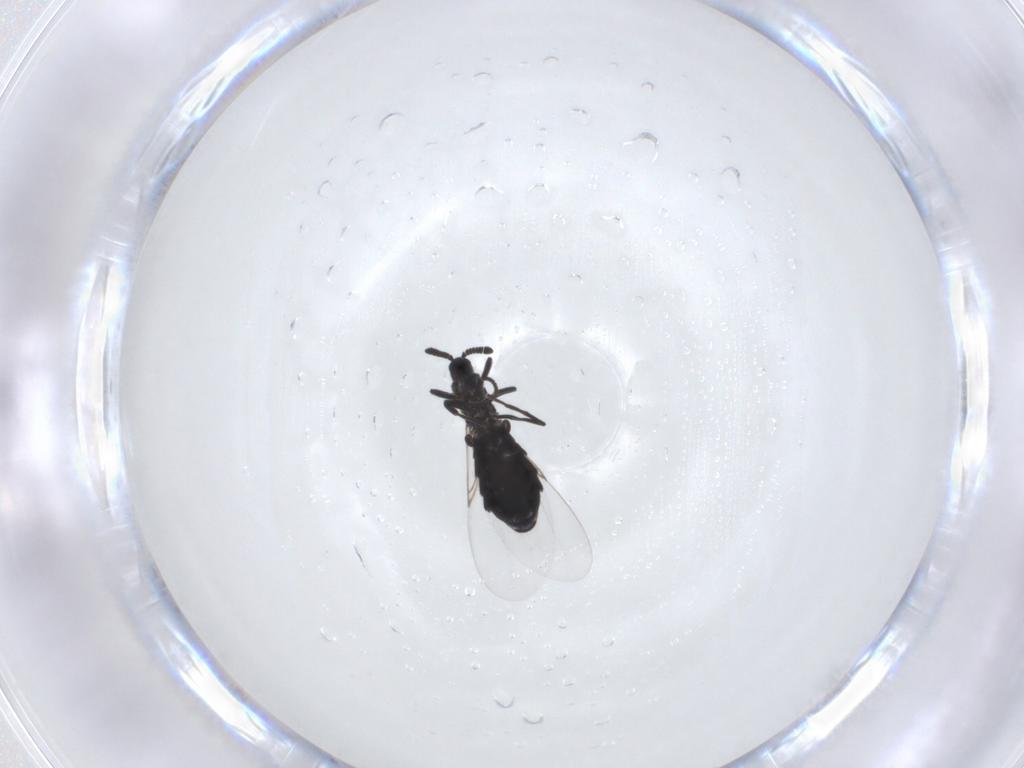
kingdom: Animalia
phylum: Arthropoda
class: Insecta
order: Diptera
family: Scatopsidae
